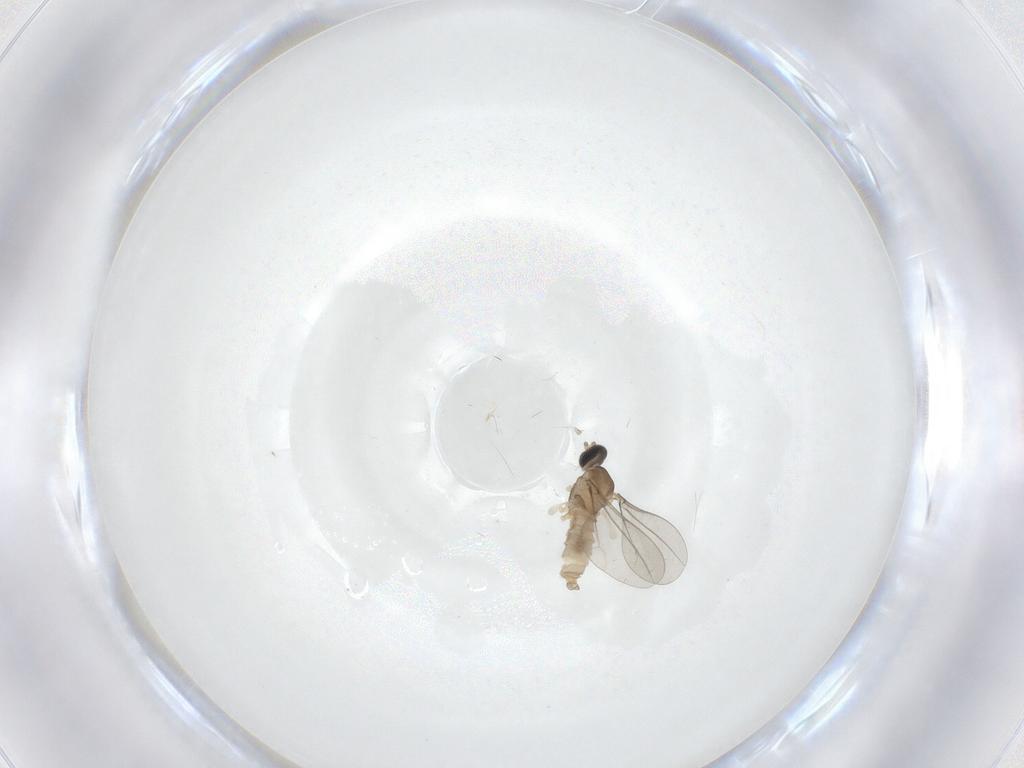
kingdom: Animalia
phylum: Arthropoda
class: Insecta
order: Diptera
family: Cecidomyiidae
